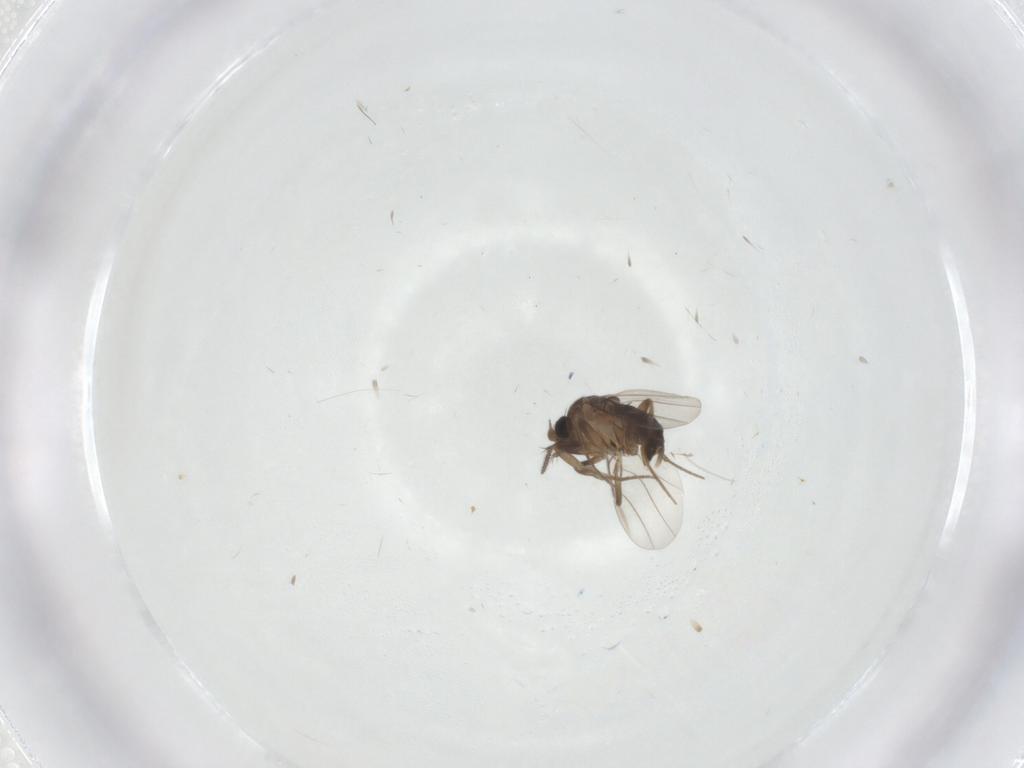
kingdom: Animalia
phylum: Arthropoda
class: Insecta
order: Diptera
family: Phoridae
